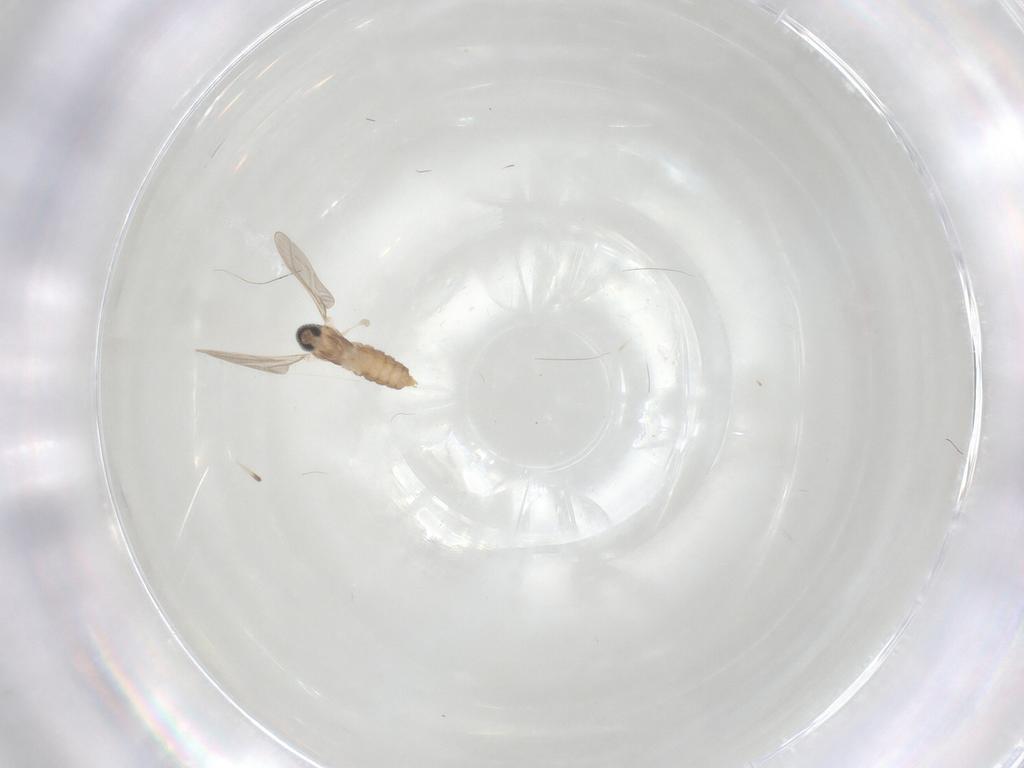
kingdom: Animalia
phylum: Arthropoda
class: Insecta
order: Diptera
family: Cecidomyiidae
